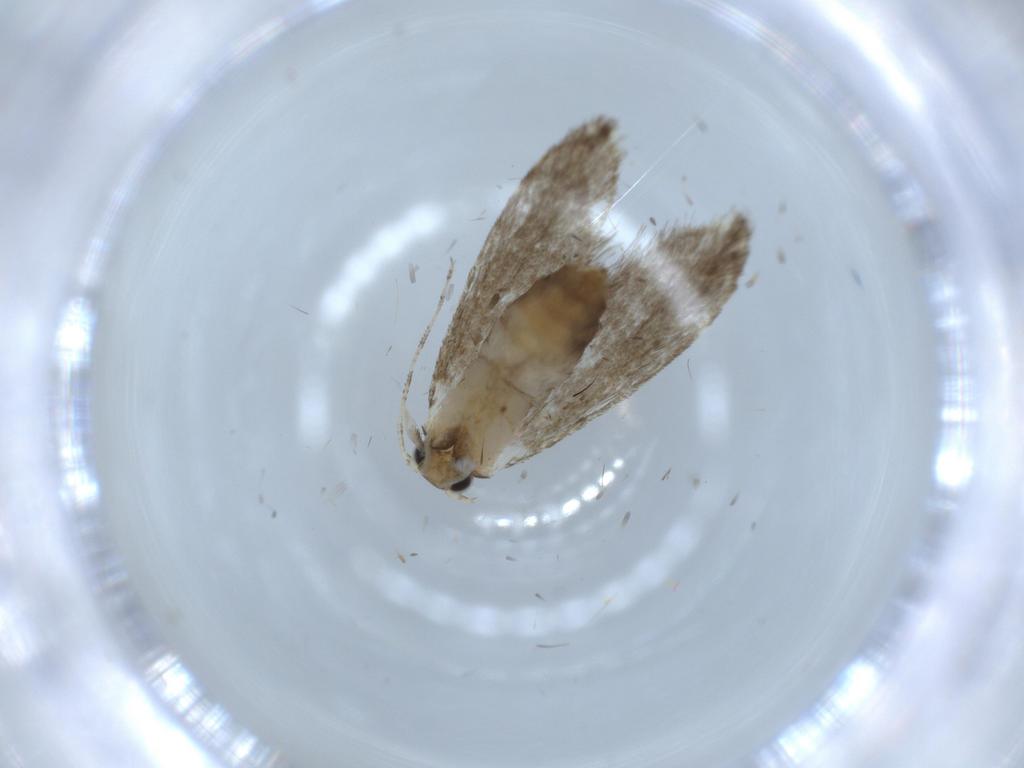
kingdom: Animalia
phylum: Arthropoda
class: Insecta
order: Lepidoptera
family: Tineidae
